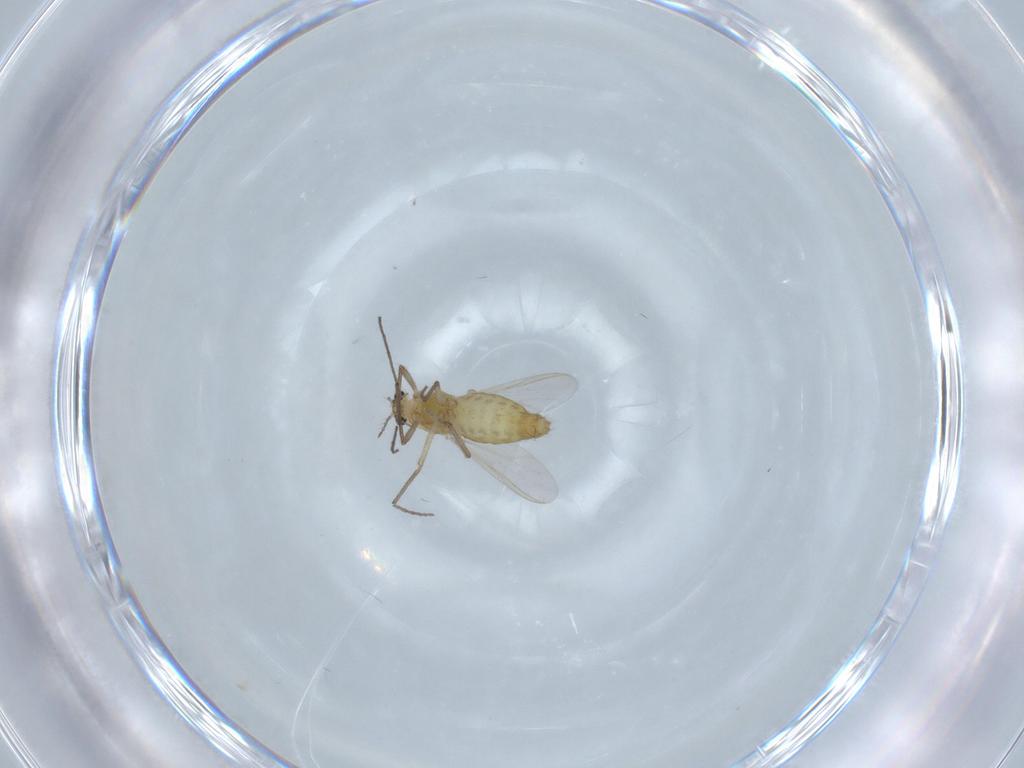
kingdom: Animalia
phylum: Arthropoda
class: Insecta
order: Diptera
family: Chironomidae
